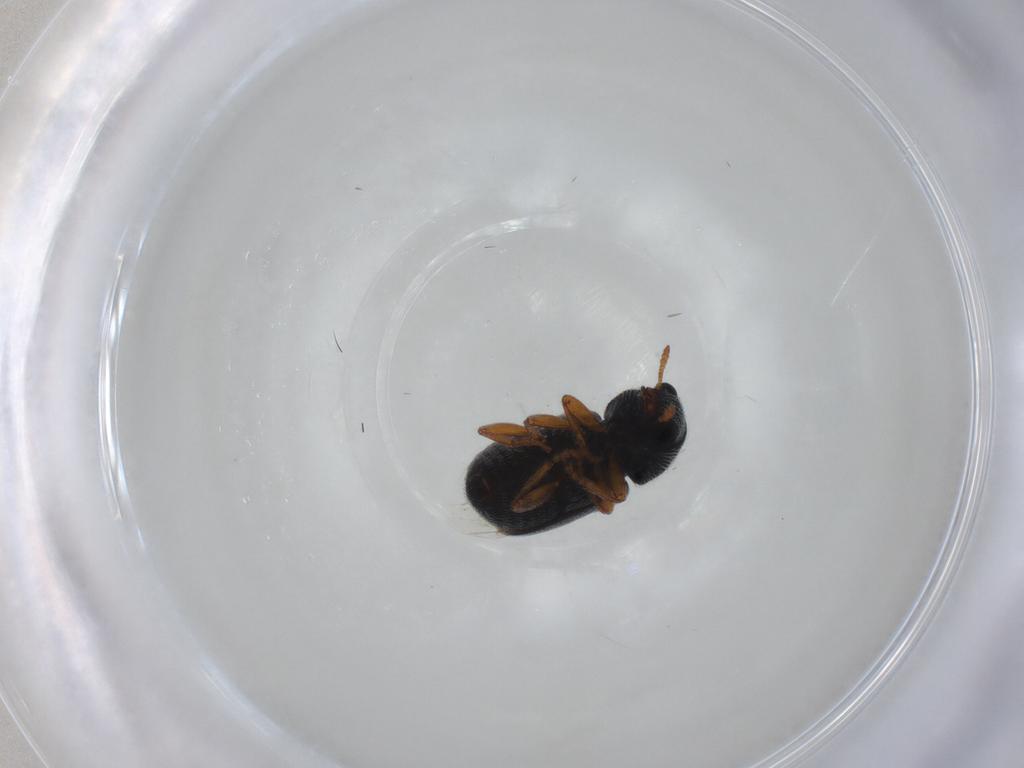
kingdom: Animalia
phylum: Arthropoda
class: Insecta
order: Coleoptera
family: Anthribidae
